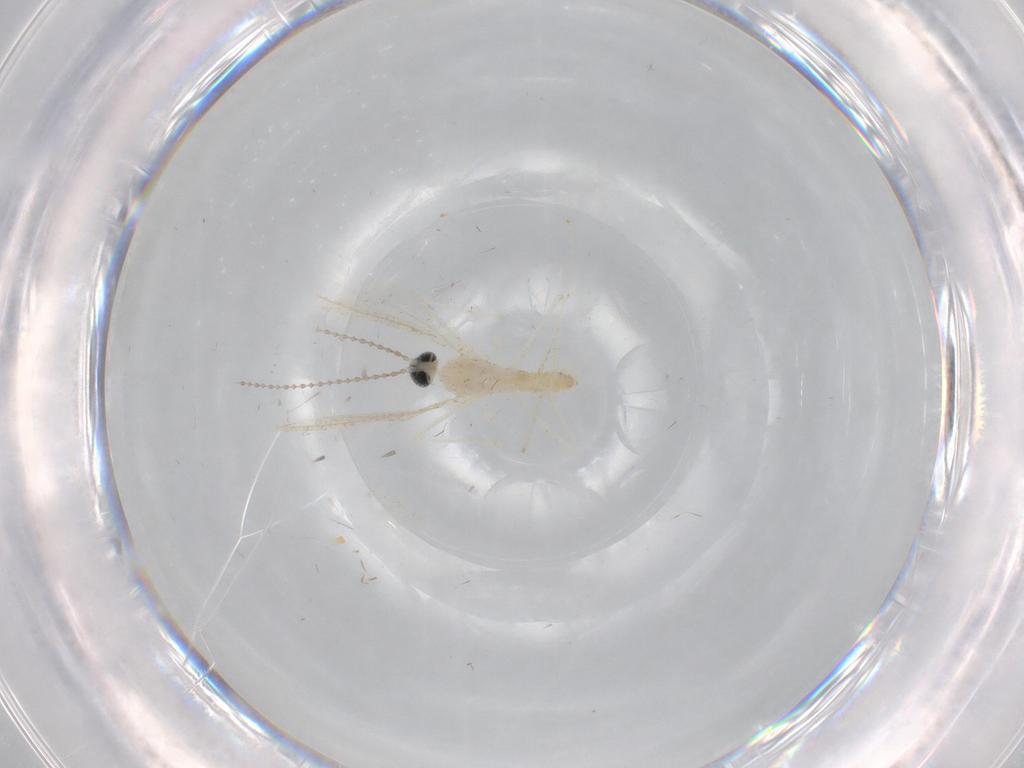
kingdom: Animalia
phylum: Arthropoda
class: Insecta
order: Diptera
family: Cecidomyiidae
